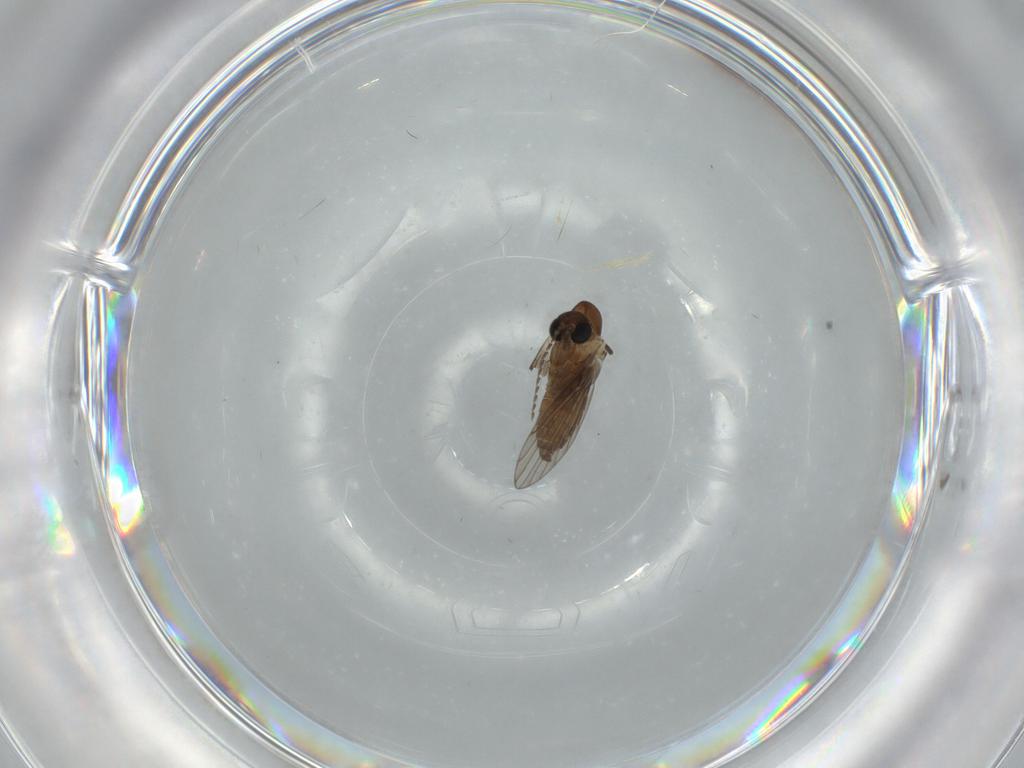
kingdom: Animalia
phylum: Arthropoda
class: Insecta
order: Diptera
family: Psychodidae
